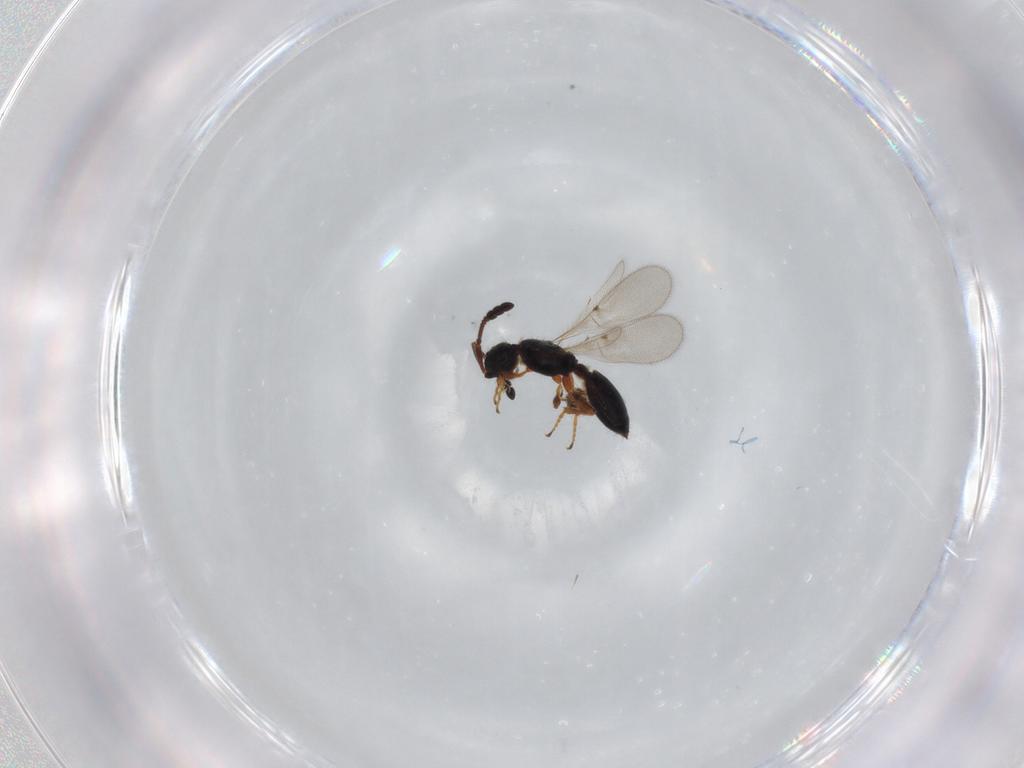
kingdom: Animalia
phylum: Arthropoda
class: Insecta
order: Hymenoptera
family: Diapriidae
